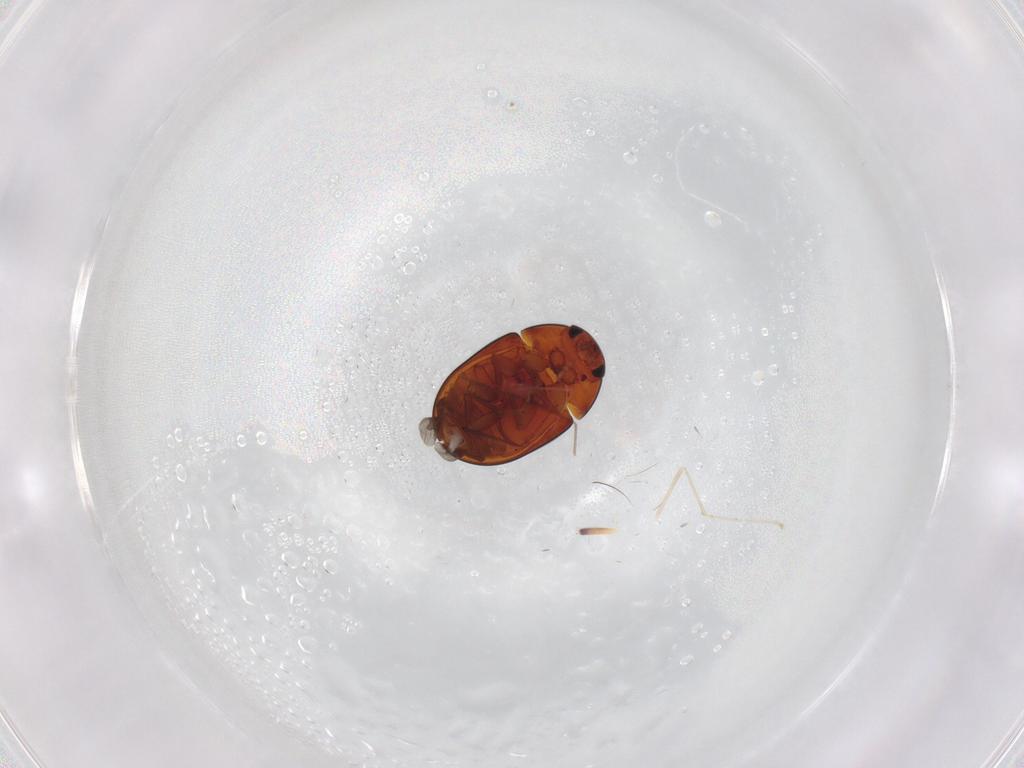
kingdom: Animalia
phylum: Arthropoda
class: Insecta
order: Coleoptera
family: Phalacridae
